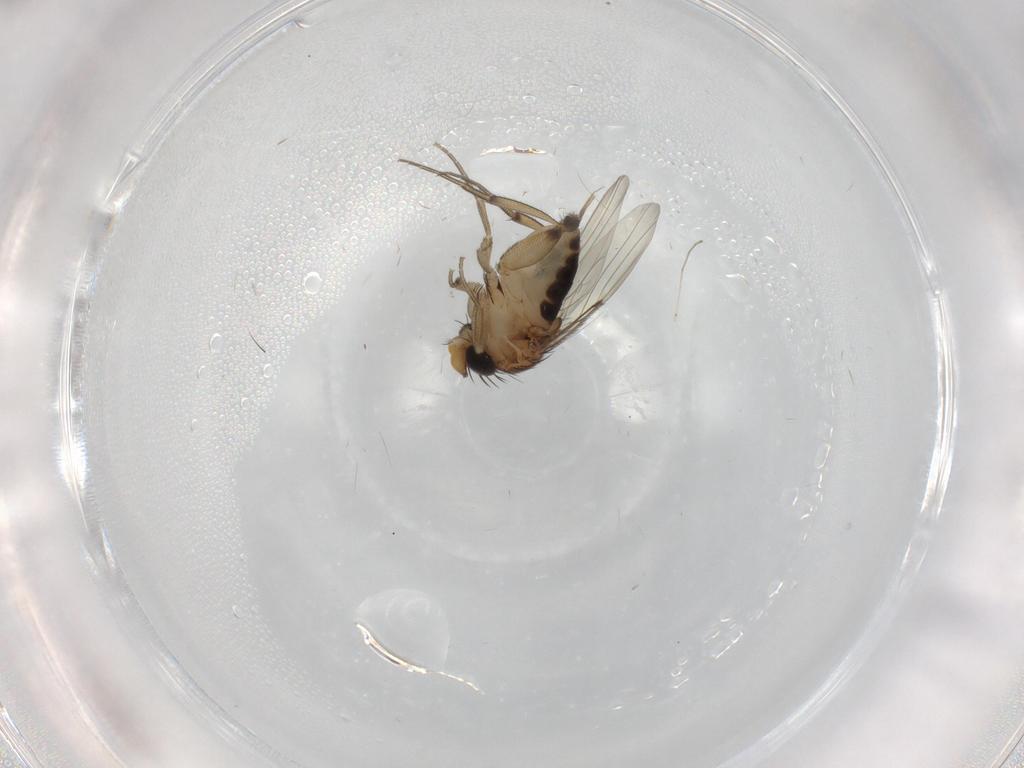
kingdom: Animalia
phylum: Arthropoda
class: Insecta
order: Diptera
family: Phoridae
